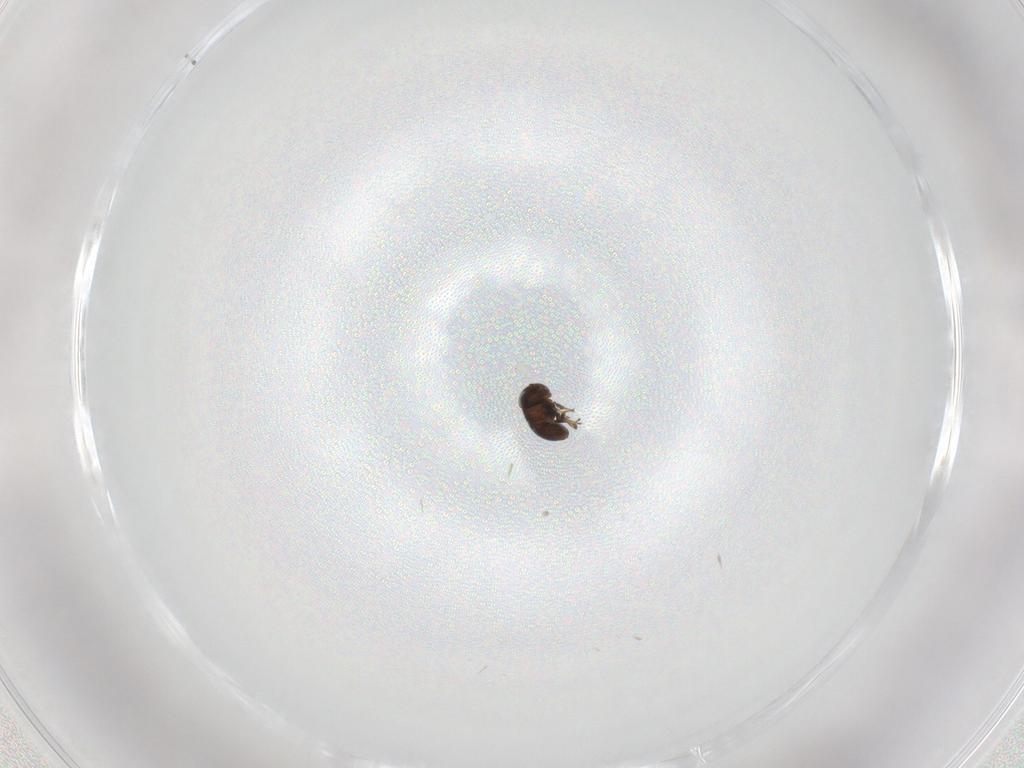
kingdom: Animalia
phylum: Arthropoda
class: Insecta
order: Hymenoptera
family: Scelionidae
